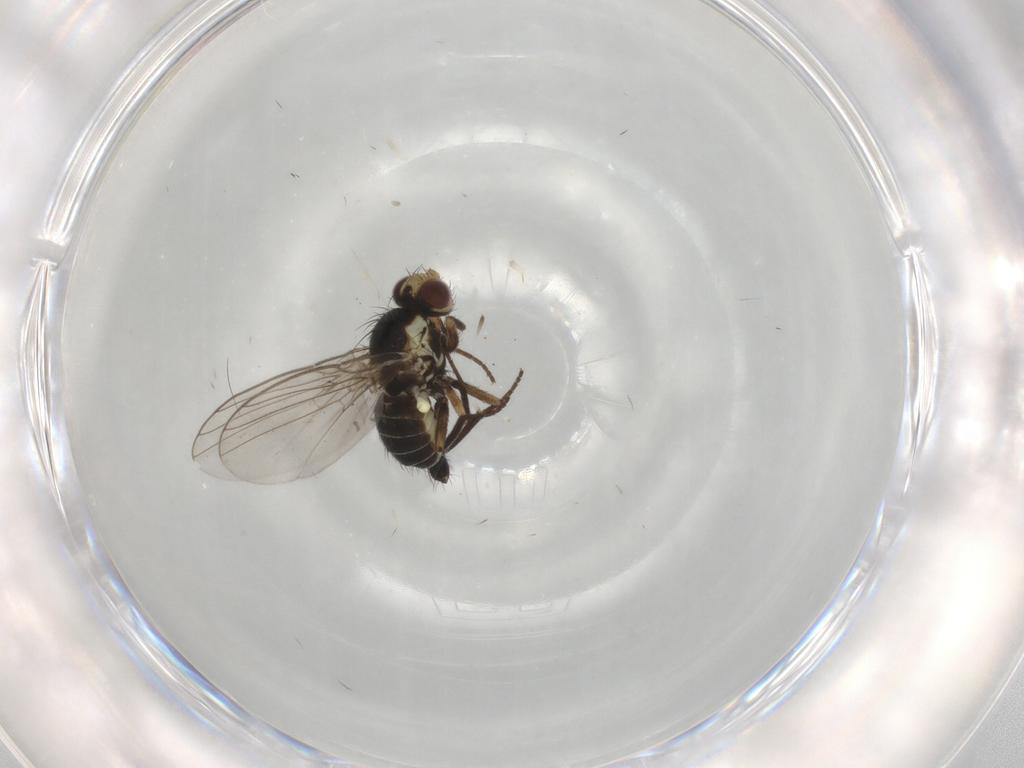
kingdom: Animalia
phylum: Arthropoda
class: Insecta
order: Diptera
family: Agromyzidae
